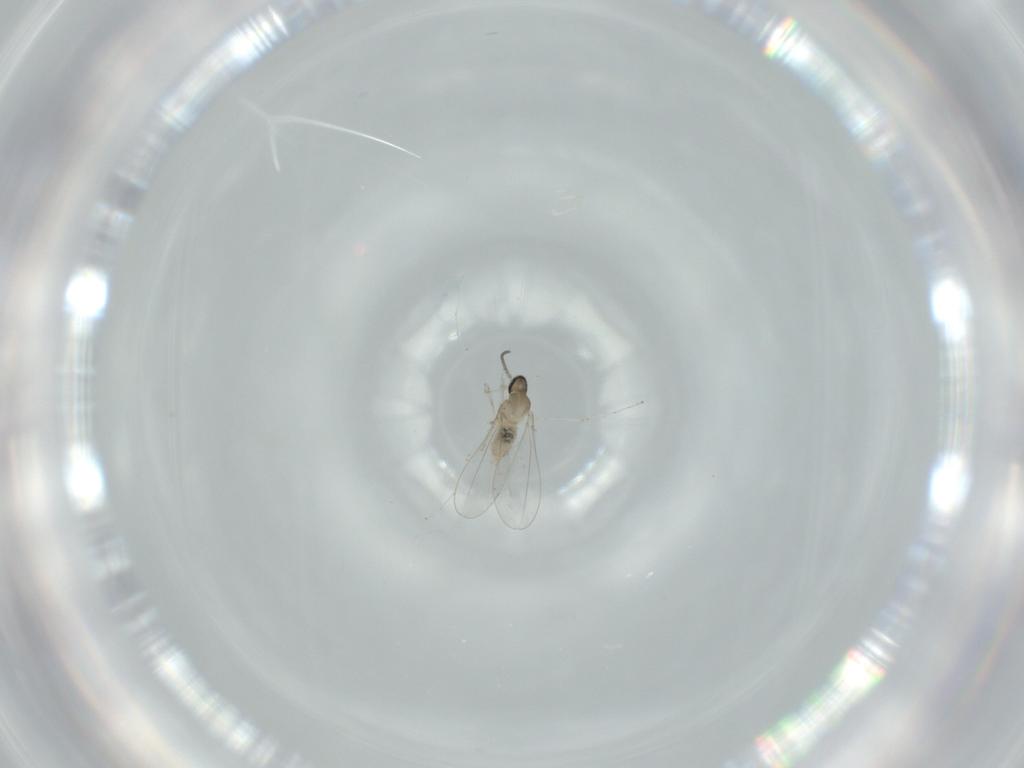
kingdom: Animalia
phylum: Arthropoda
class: Insecta
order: Diptera
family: Cecidomyiidae
